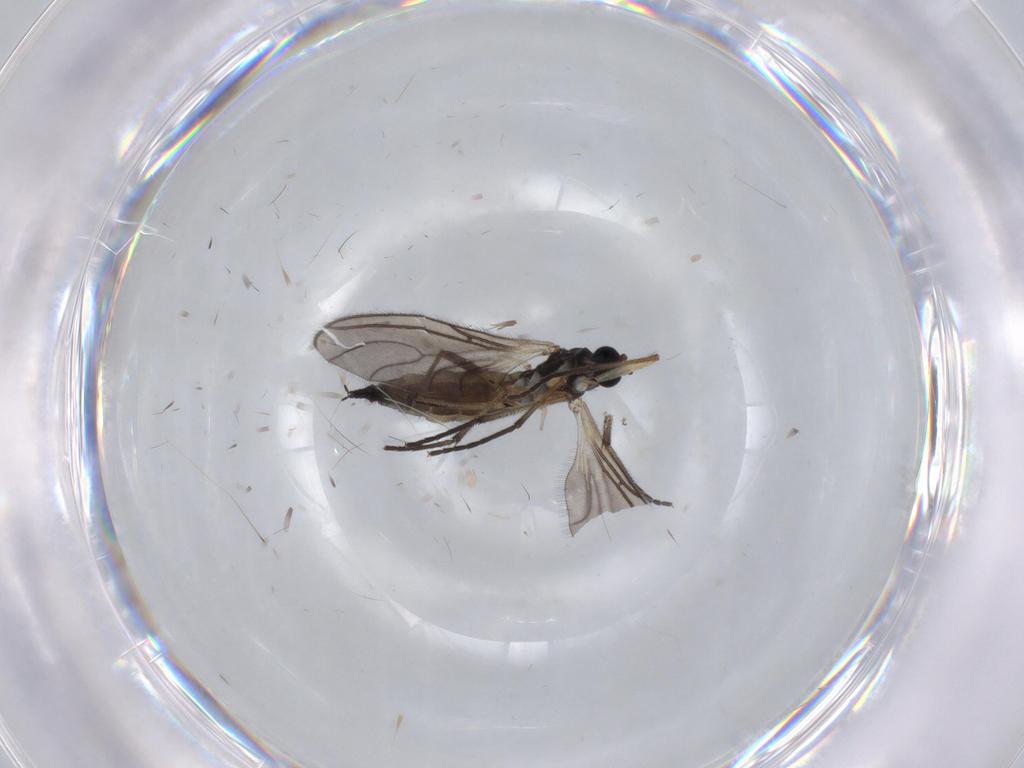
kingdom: Animalia
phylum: Arthropoda
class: Insecta
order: Diptera
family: Sciaridae
